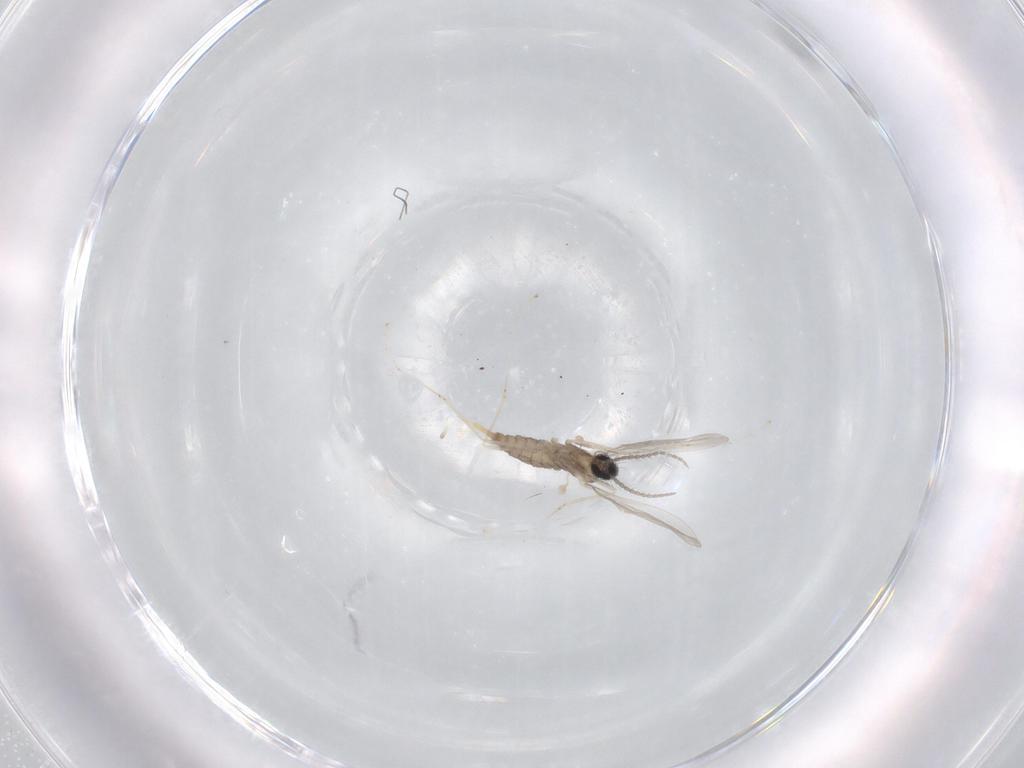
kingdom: Animalia
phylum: Arthropoda
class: Insecta
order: Diptera
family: Cecidomyiidae
